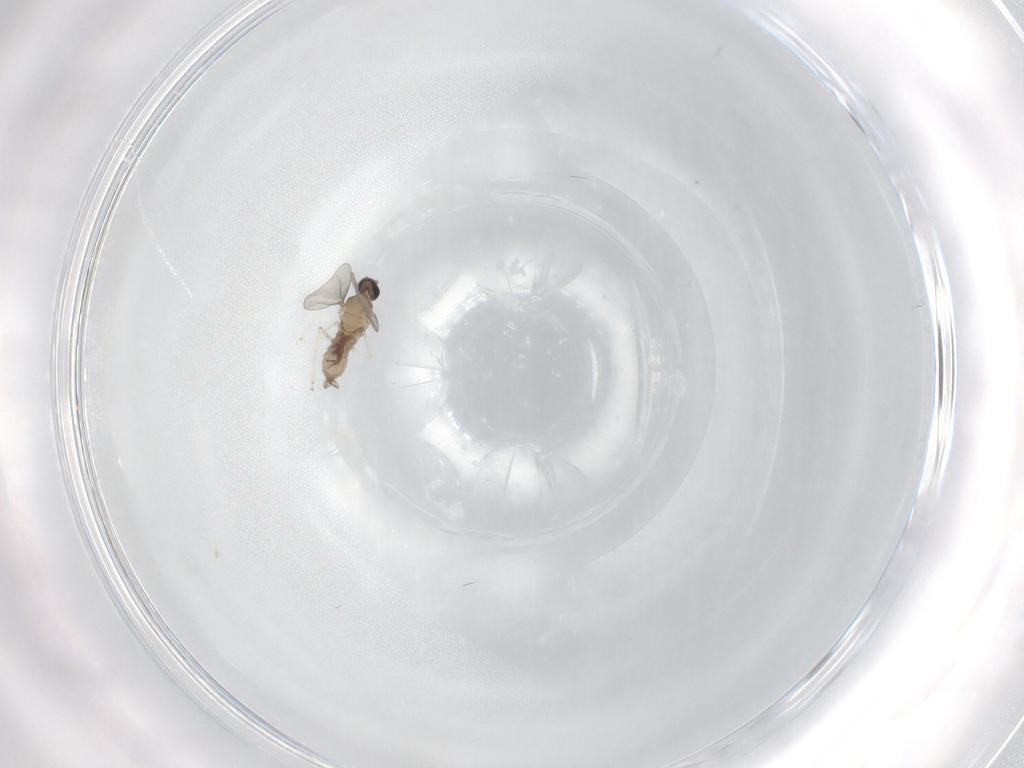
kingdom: Animalia
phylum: Arthropoda
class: Insecta
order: Diptera
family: Cecidomyiidae
